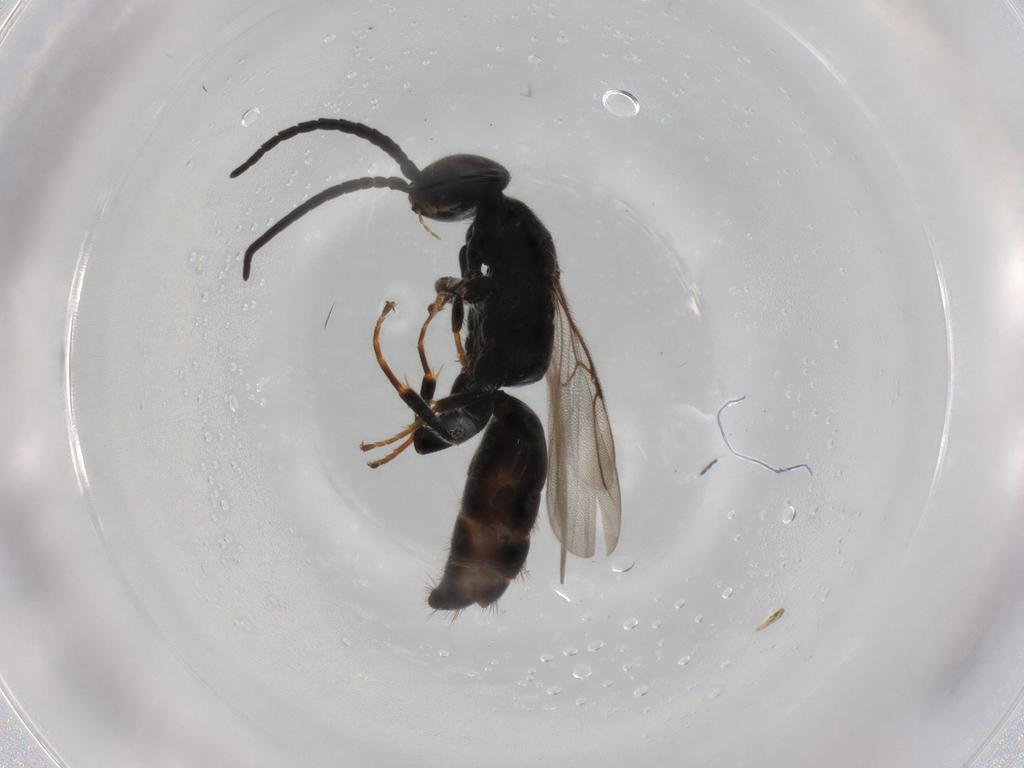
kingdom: Animalia
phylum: Arthropoda
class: Insecta
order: Hymenoptera
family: Bethylidae
